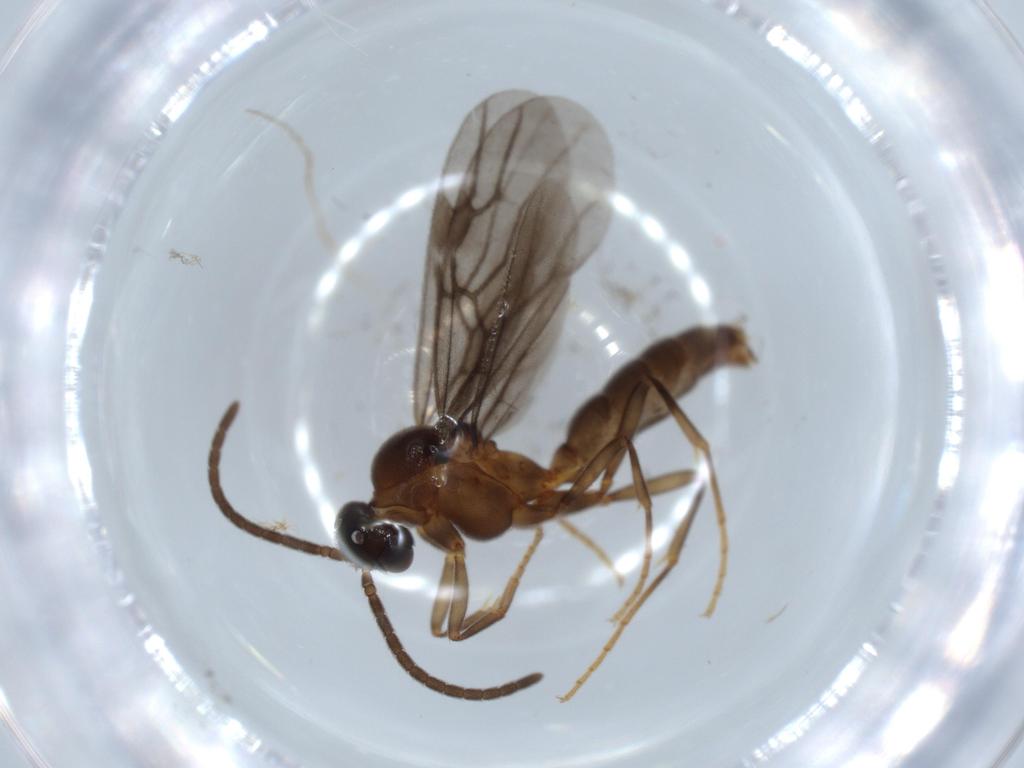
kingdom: Animalia
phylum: Arthropoda
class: Insecta
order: Hymenoptera
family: Formicidae
